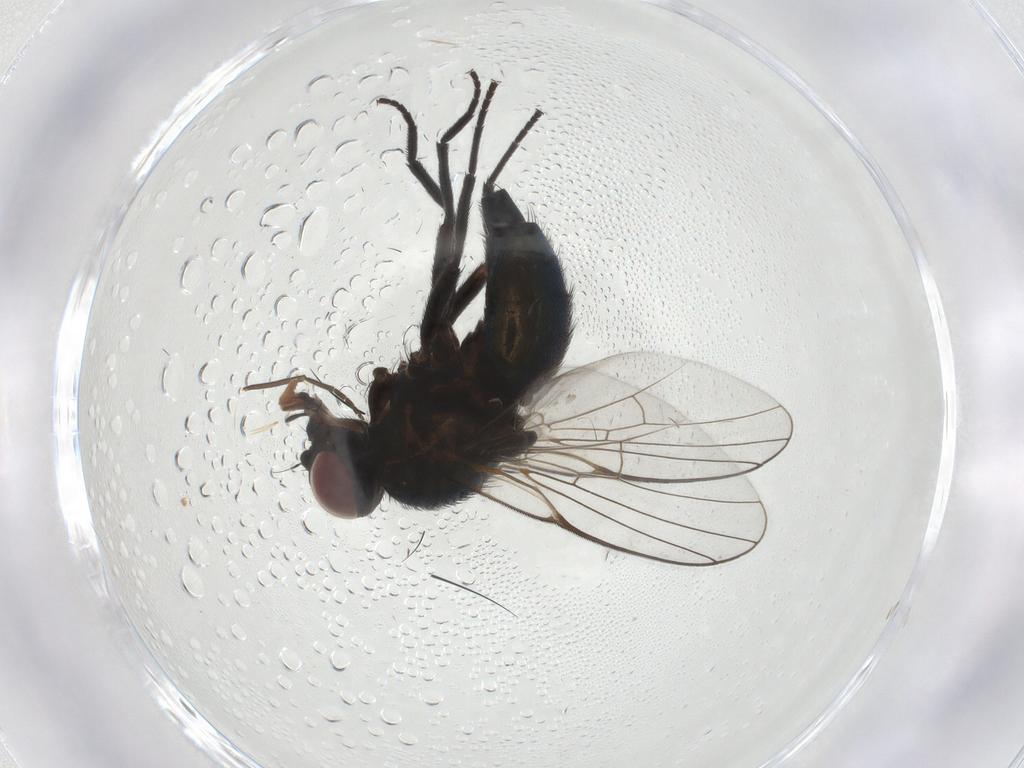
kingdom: Animalia
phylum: Arthropoda
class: Insecta
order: Diptera
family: Agromyzidae
